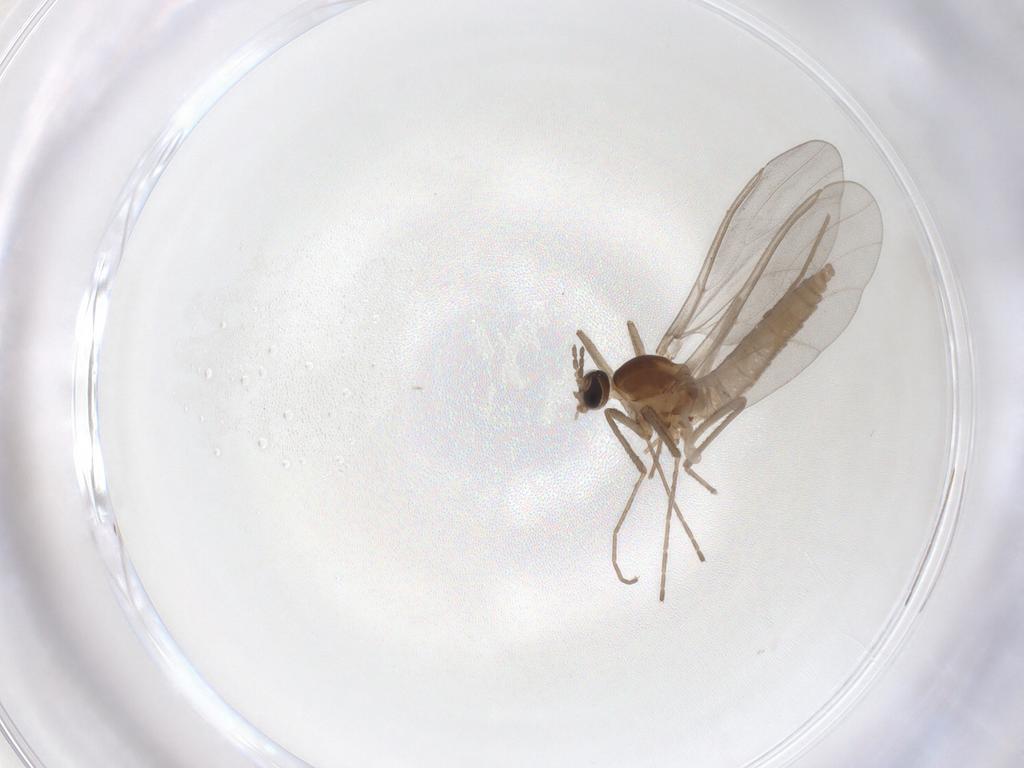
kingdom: Animalia
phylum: Arthropoda
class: Insecta
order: Diptera
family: Cecidomyiidae
